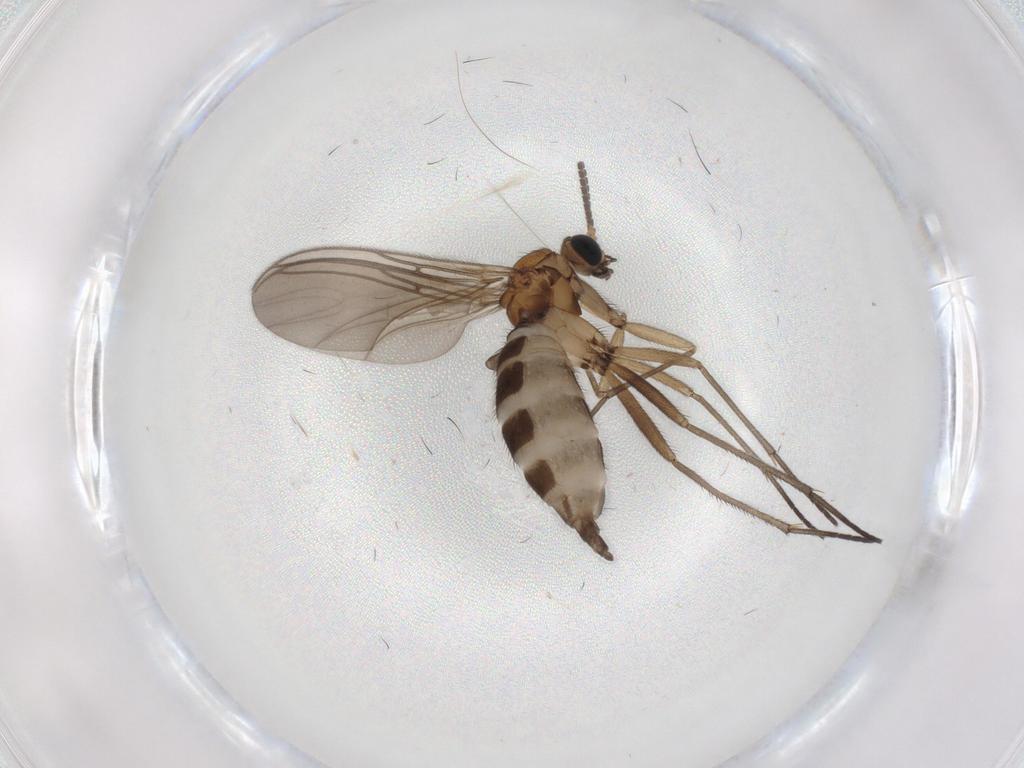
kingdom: Animalia
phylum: Arthropoda
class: Insecta
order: Diptera
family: Sciaridae
